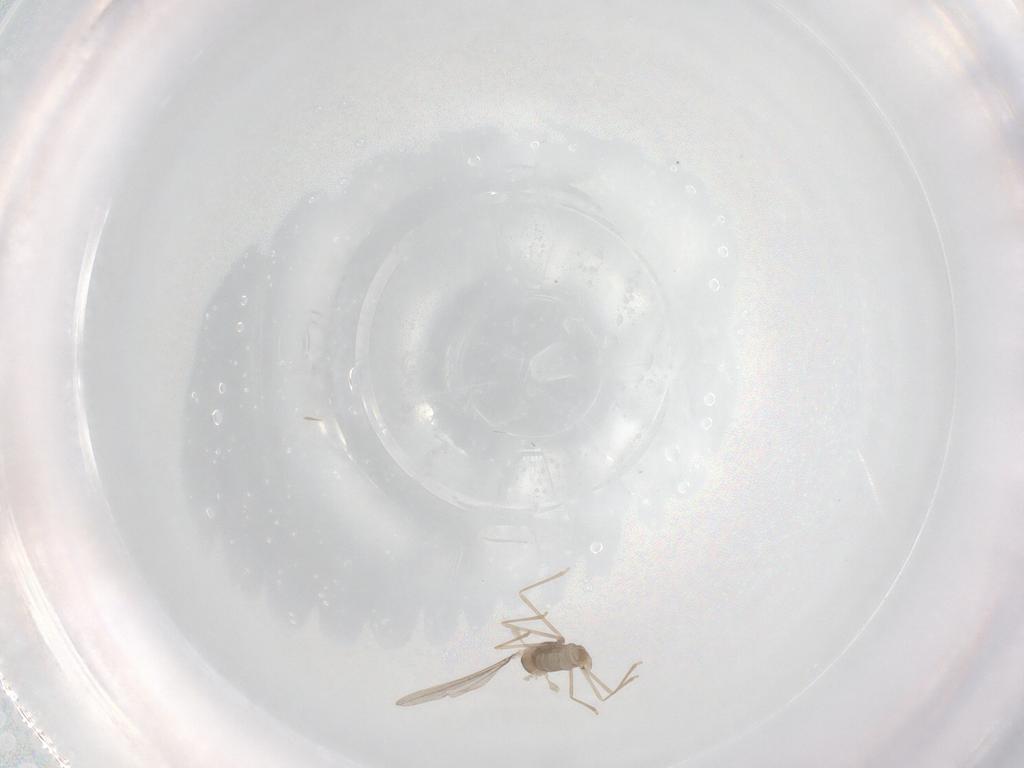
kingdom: Animalia
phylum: Arthropoda
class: Insecta
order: Diptera
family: Cecidomyiidae
